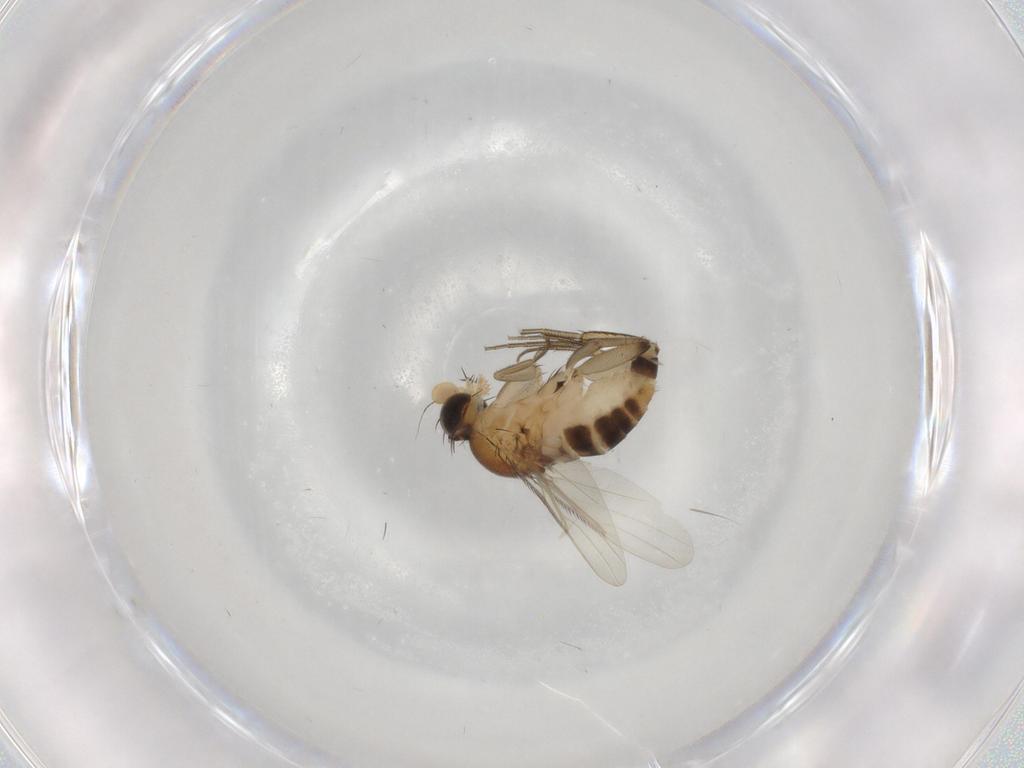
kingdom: Animalia
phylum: Arthropoda
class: Insecta
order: Diptera
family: Phoridae
